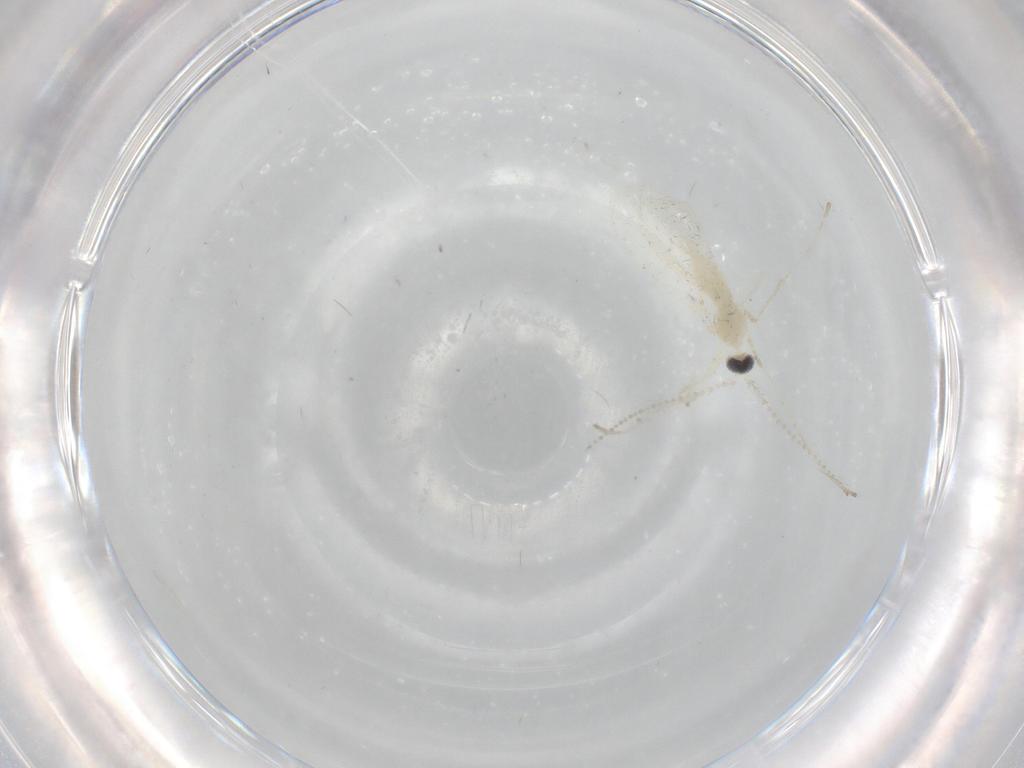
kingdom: Animalia
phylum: Arthropoda
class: Insecta
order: Diptera
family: Cecidomyiidae
